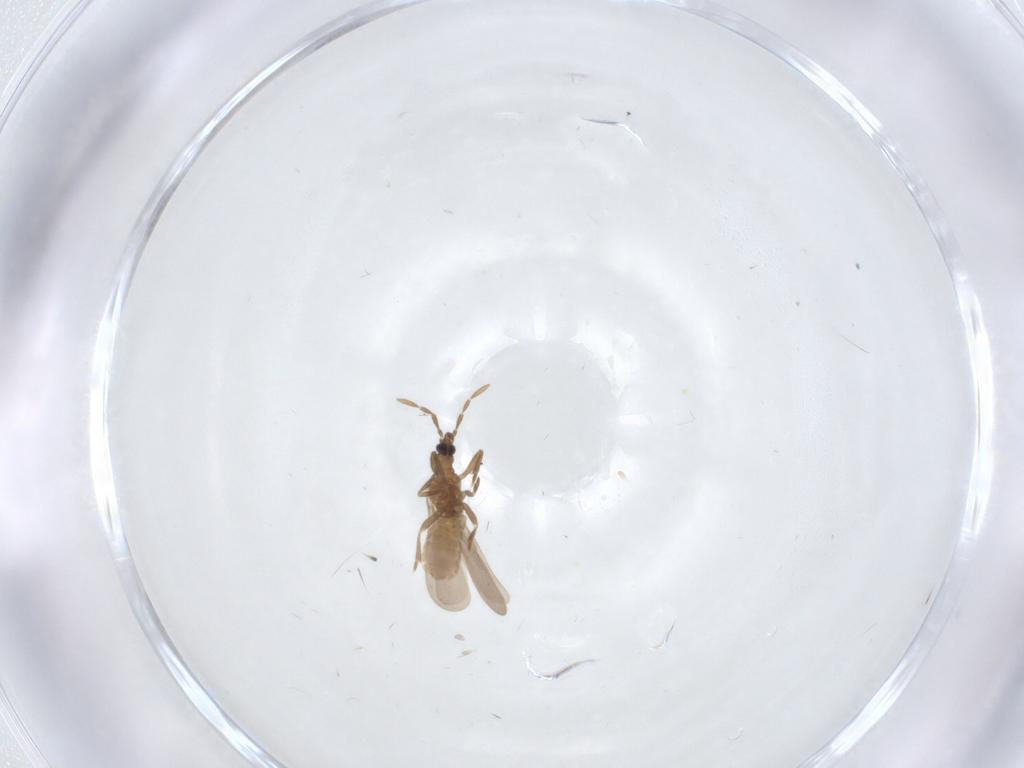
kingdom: Animalia
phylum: Arthropoda
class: Insecta
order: Hemiptera
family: Enicocephalidae
